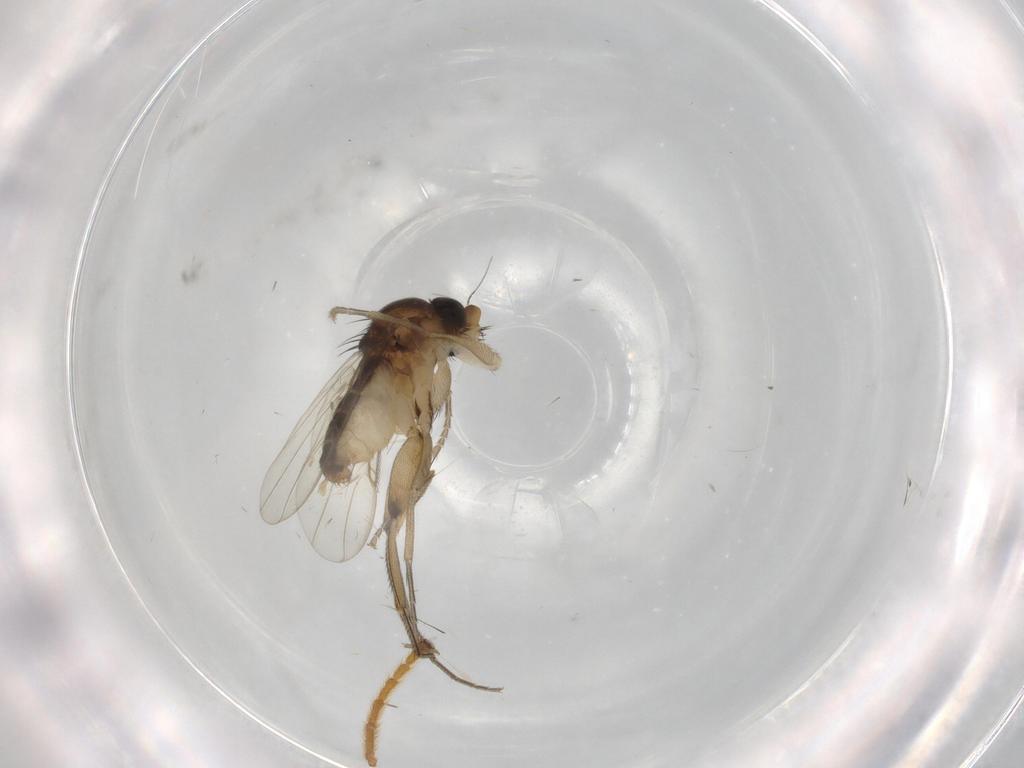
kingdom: Animalia
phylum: Arthropoda
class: Insecta
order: Diptera
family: Phoridae
